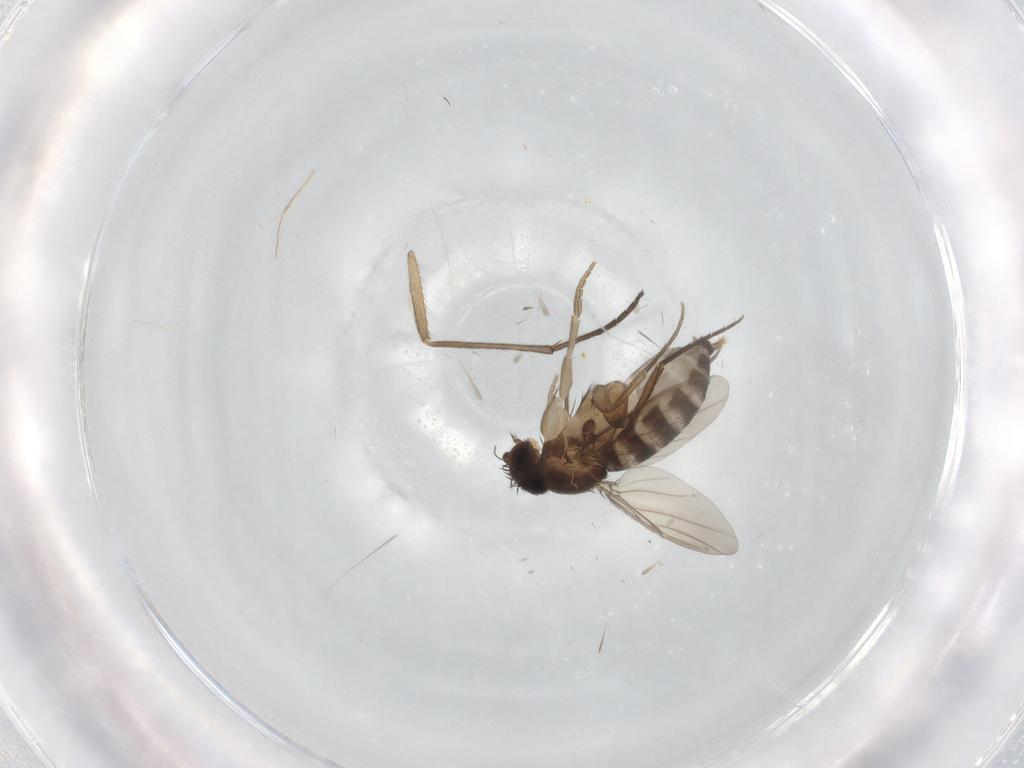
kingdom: Animalia
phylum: Arthropoda
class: Insecta
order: Diptera
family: Phoridae
